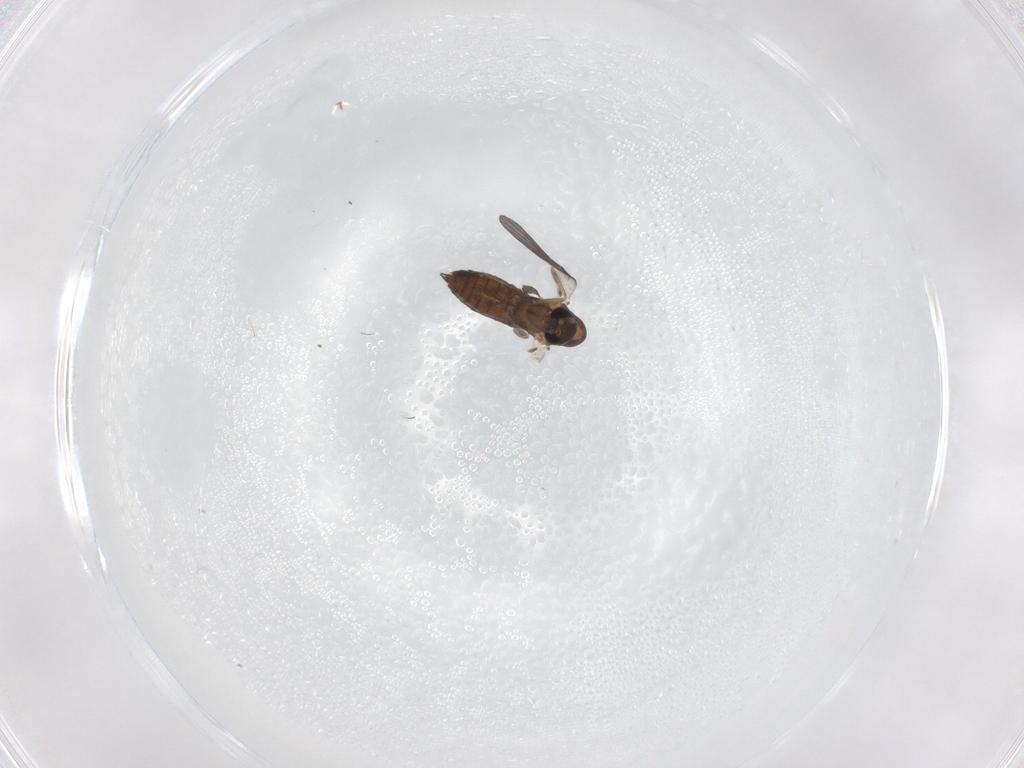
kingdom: Animalia
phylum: Arthropoda
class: Insecta
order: Diptera
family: Chironomidae
